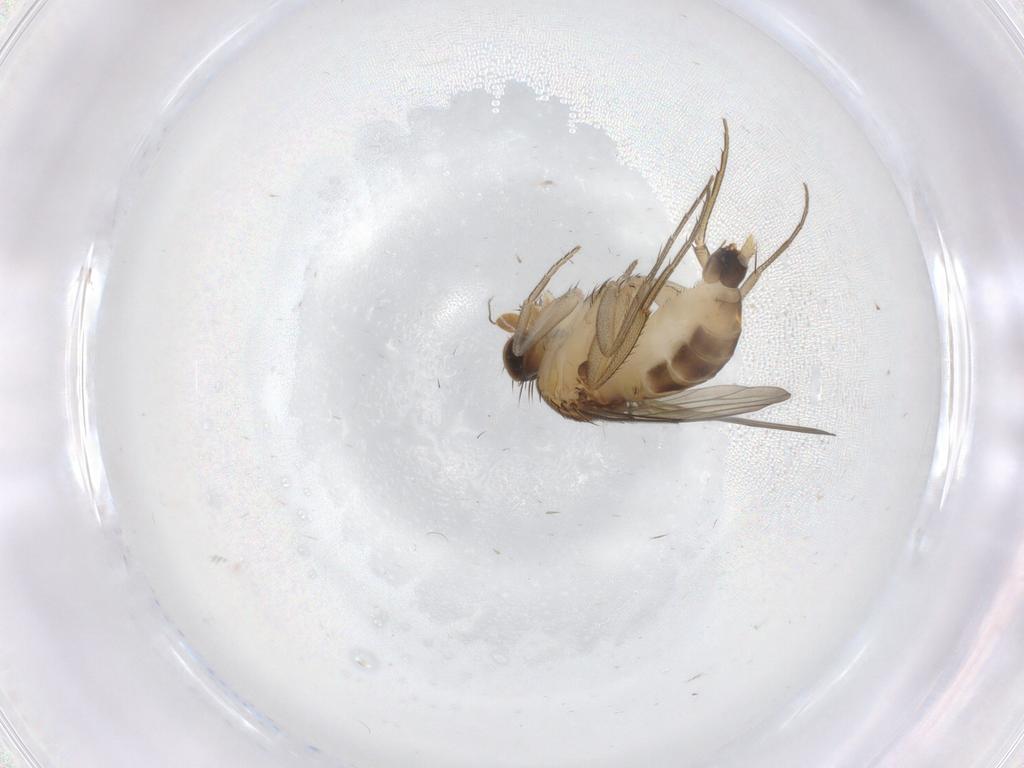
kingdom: Animalia
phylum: Arthropoda
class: Insecta
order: Diptera
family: Phoridae
